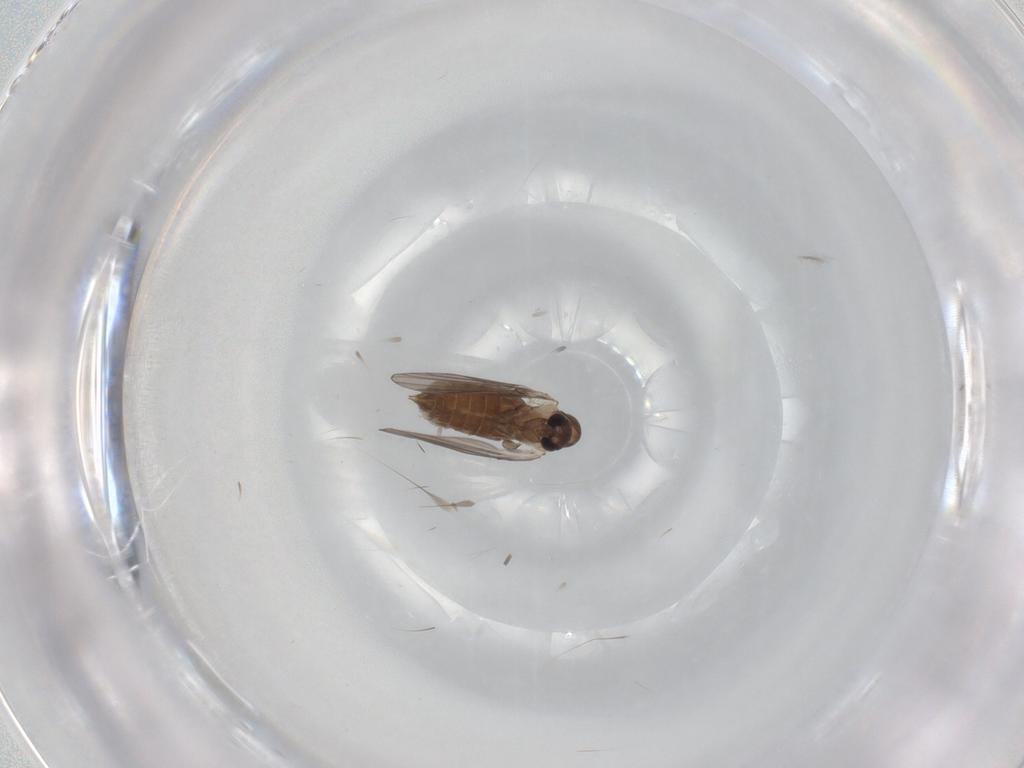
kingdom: Animalia
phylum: Arthropoda
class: Insecta
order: Diptera
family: Psychodidae
